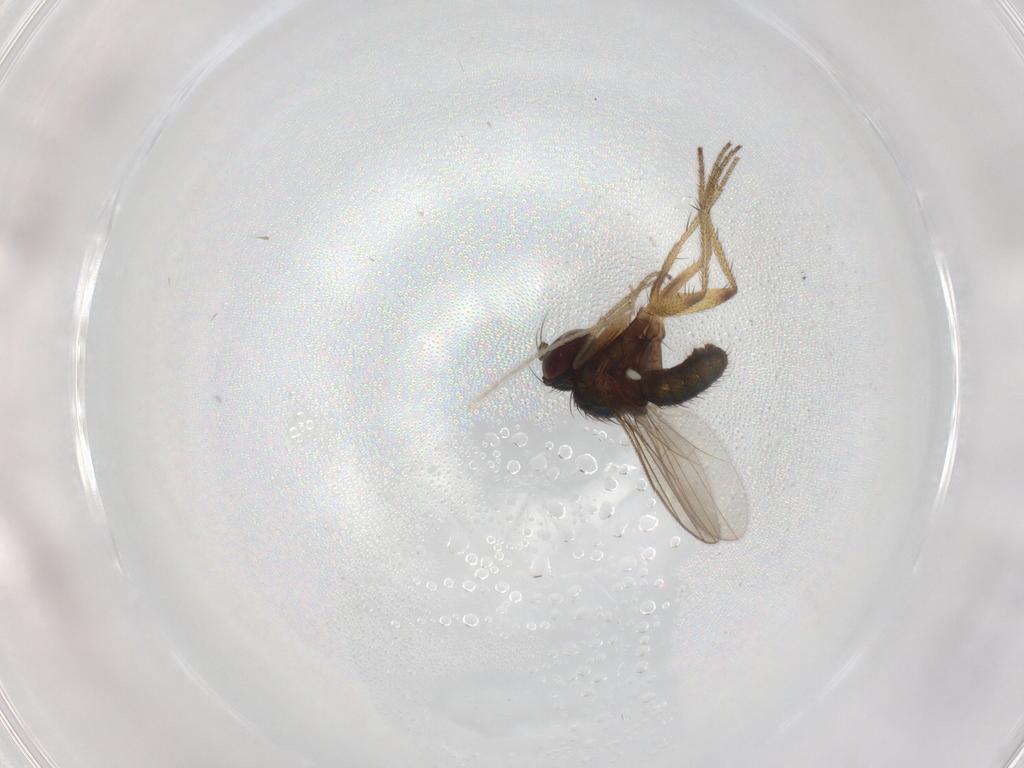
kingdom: Animalia
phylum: Arthropoda
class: Insecta
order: Diptera
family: Dolichopodidae
